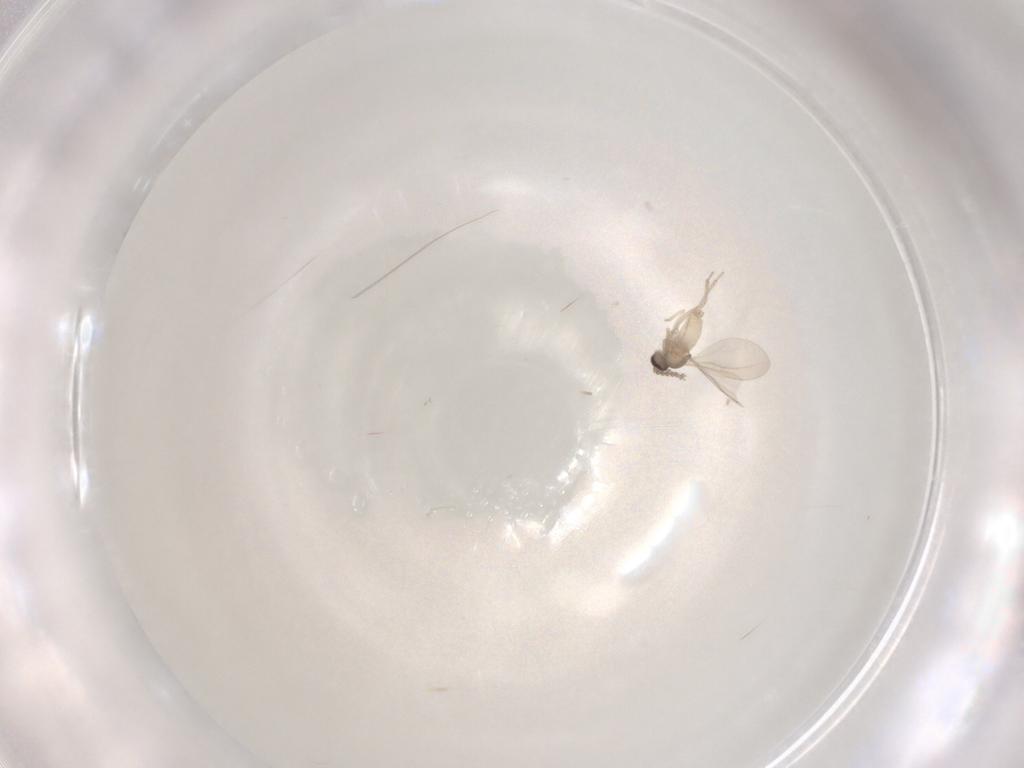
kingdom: Animalia
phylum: Arthropoda
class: Insecta
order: Diptera
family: Cecidomyiidae
